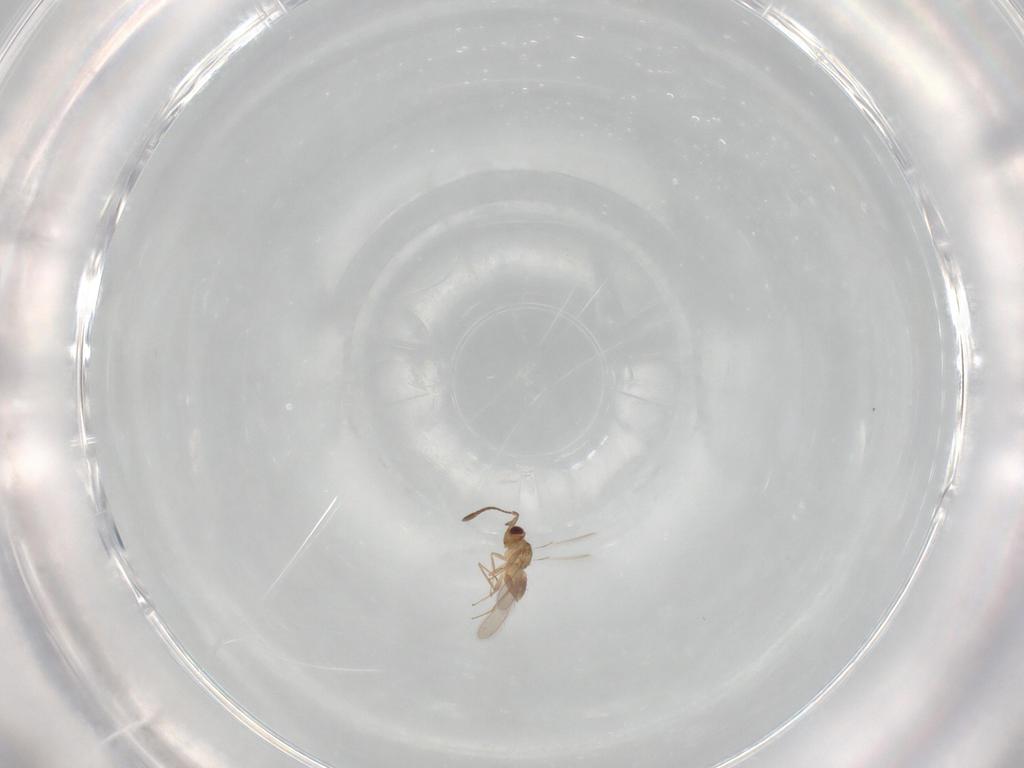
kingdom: Animalia
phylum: Arthropoda
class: Insecta
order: Hymenoptera
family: Mymaridae
